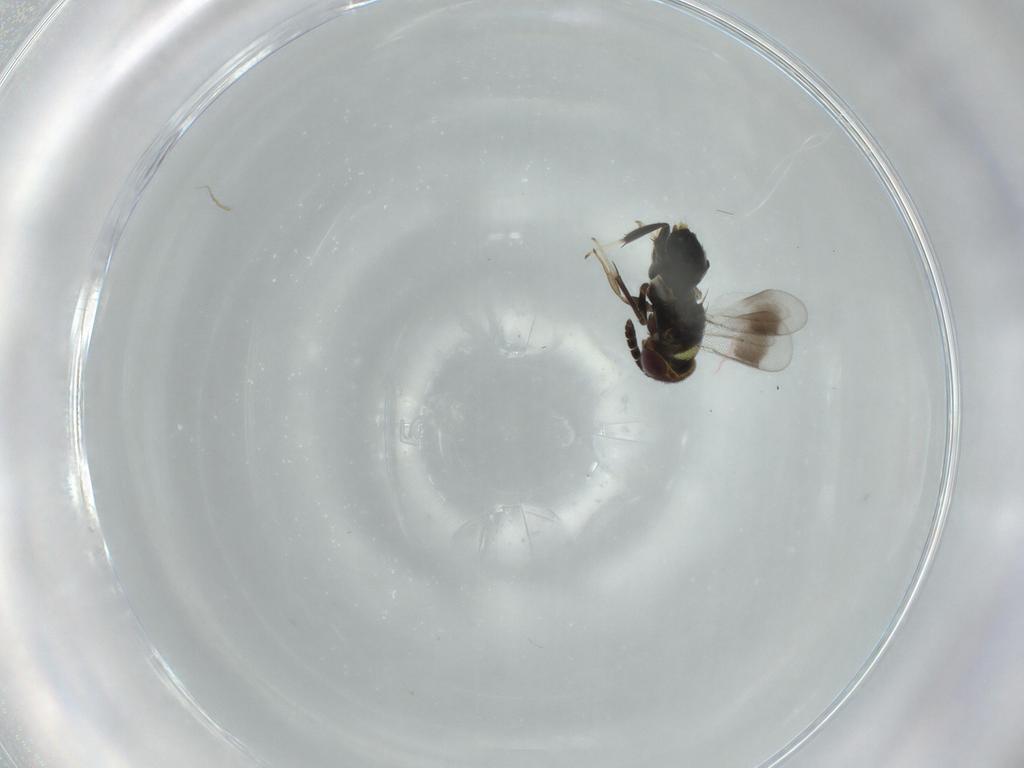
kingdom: Animalia
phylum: Arthropoda
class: Insecta
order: Hymenoptera
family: Aphelinidae
